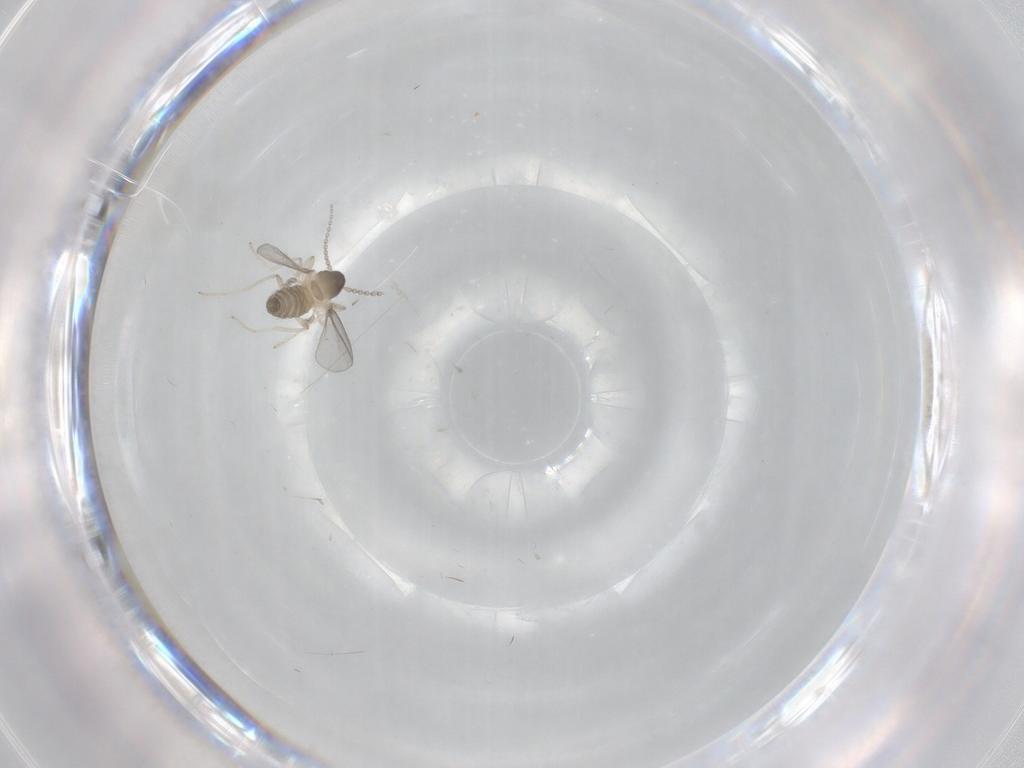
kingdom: Animalia
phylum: Arthropoda
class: Insecta
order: Diptera
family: Cecidomyiidae
